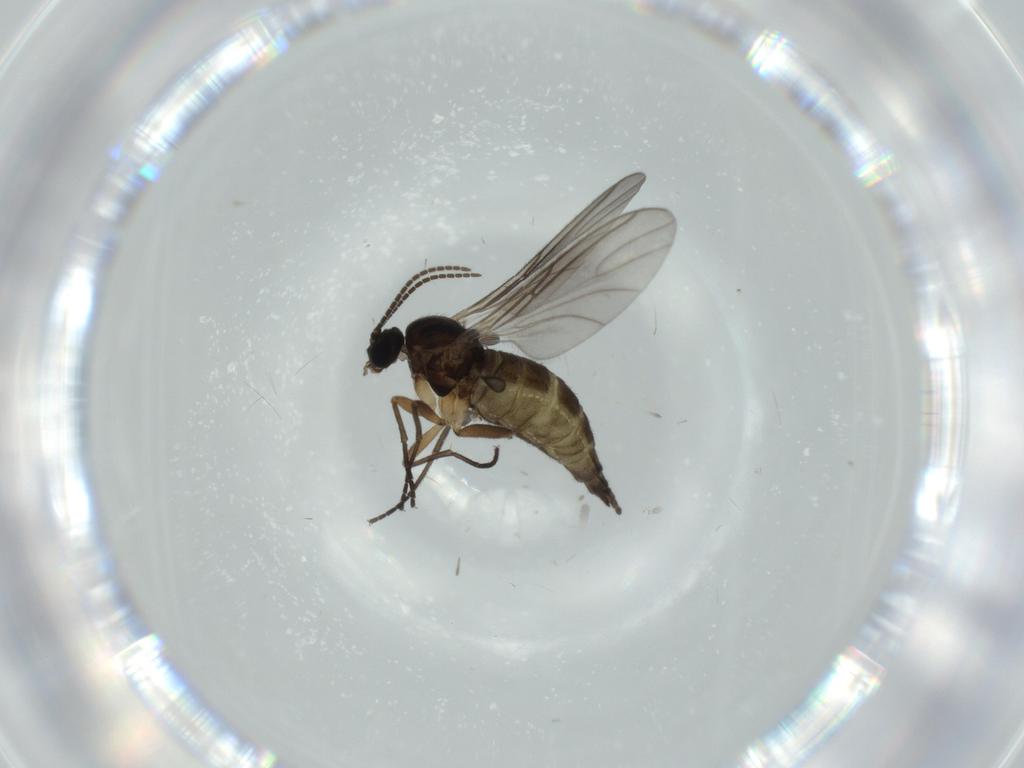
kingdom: Animalia
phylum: Arthropoda
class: Insecta
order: Diptera
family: Sciaridae
